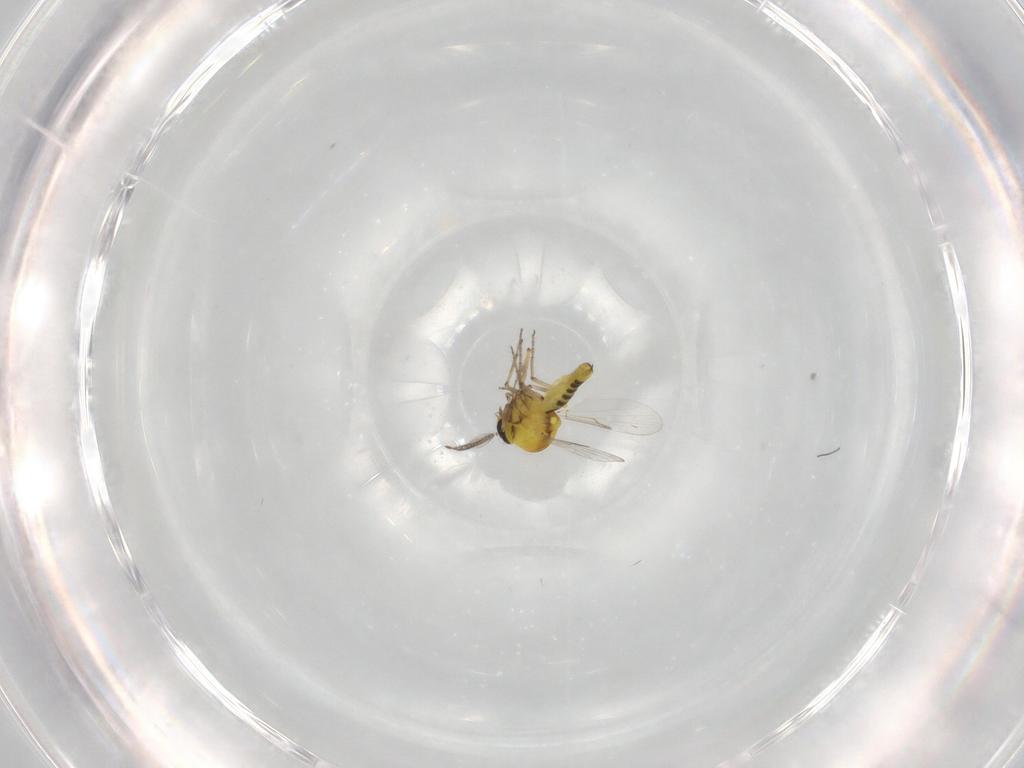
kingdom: Animalia
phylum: Arthropoda
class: Insecta
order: Diptera
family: Ceratopogonidae
